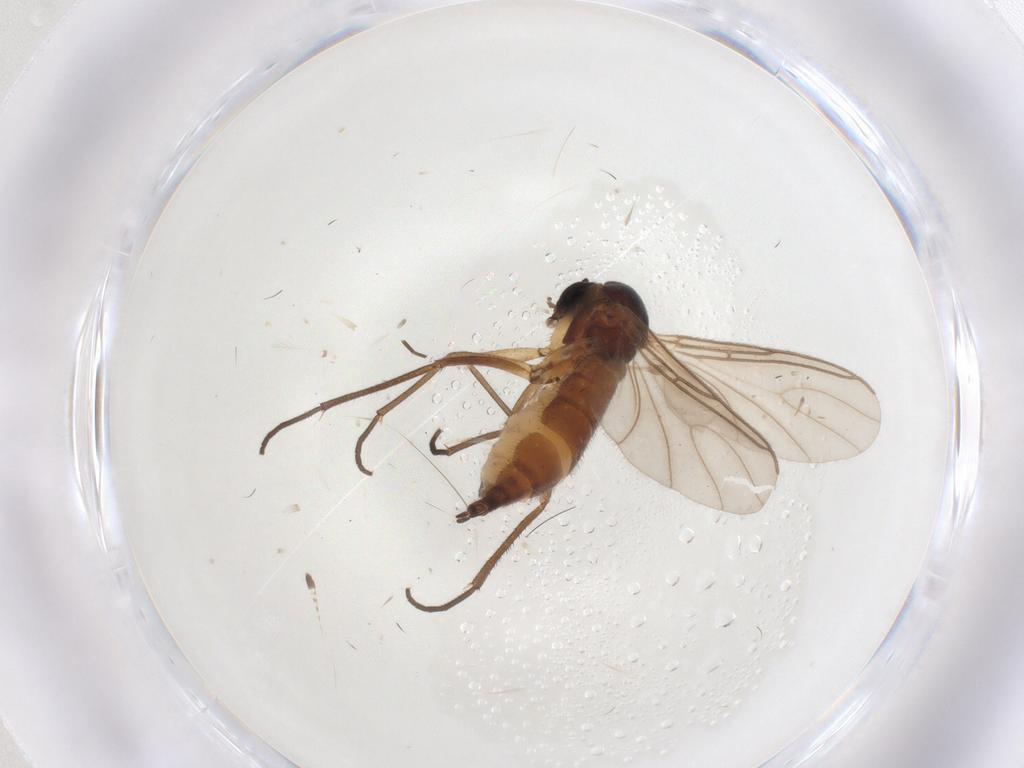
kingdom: Animalia
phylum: Arthropoda
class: Insecta
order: Diptera
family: Sciaridae
